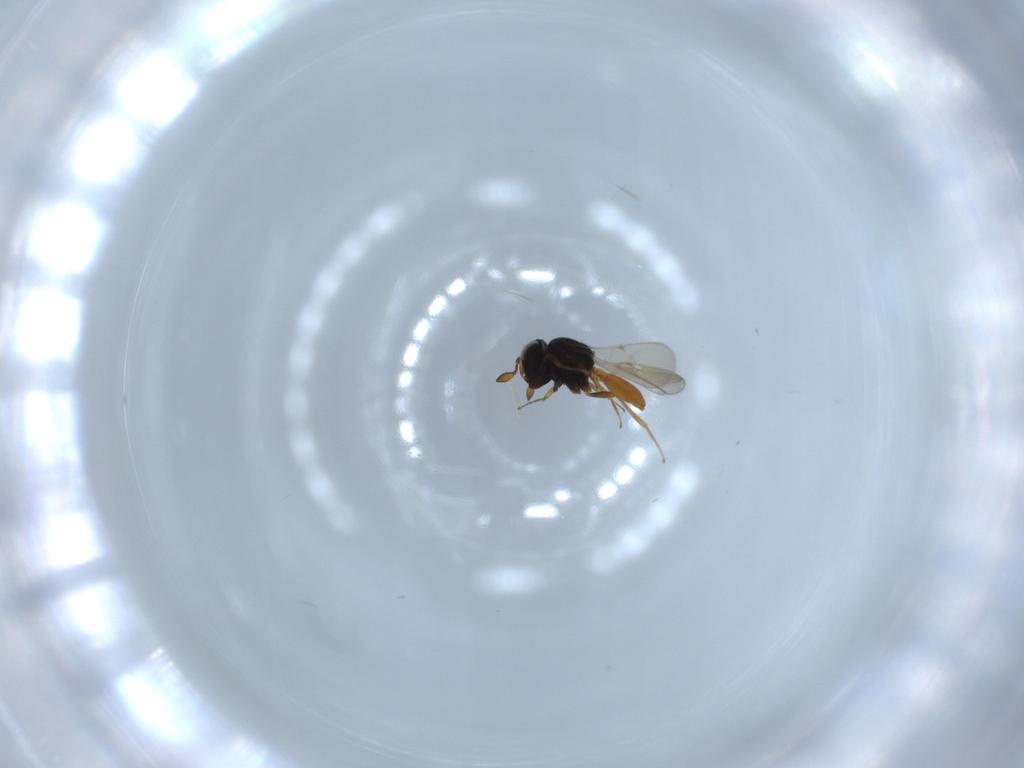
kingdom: Animalia
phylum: Arthropoda
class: Insecta
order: Hymenoptera
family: Scelionidae
